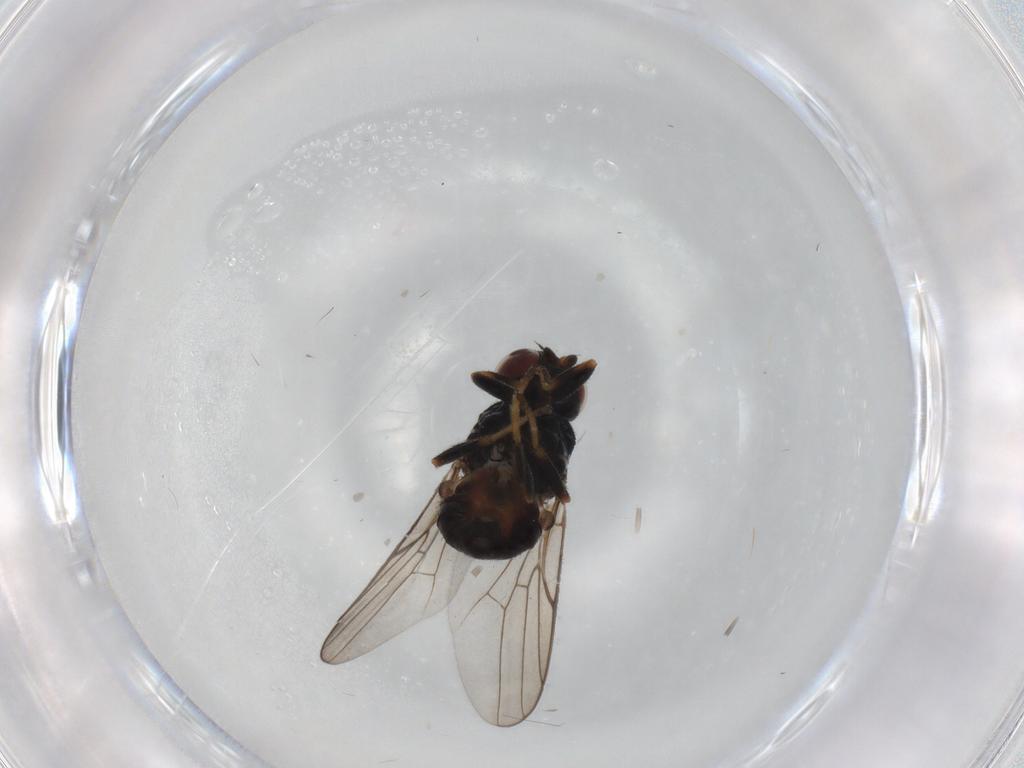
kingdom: Animalia
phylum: Arthropoda
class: Insecta
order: Diptera
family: Chloropidae
